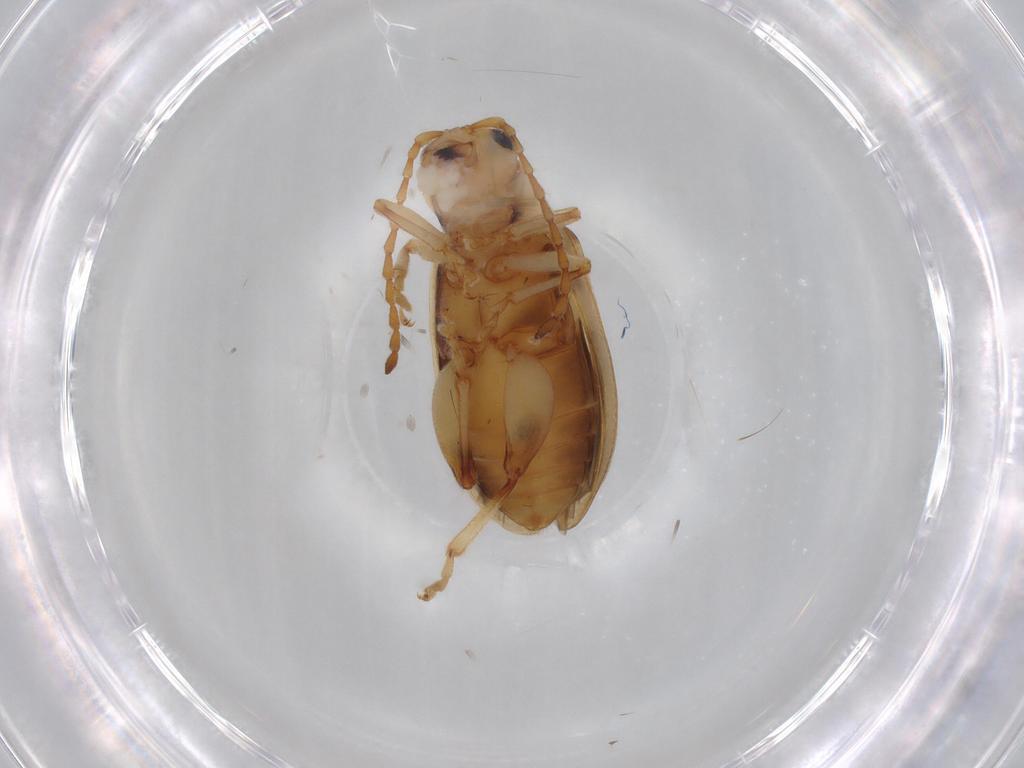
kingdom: Animalia
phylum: Arthropoda
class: Insecta
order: Coleoptera
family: Chrysomelidae
